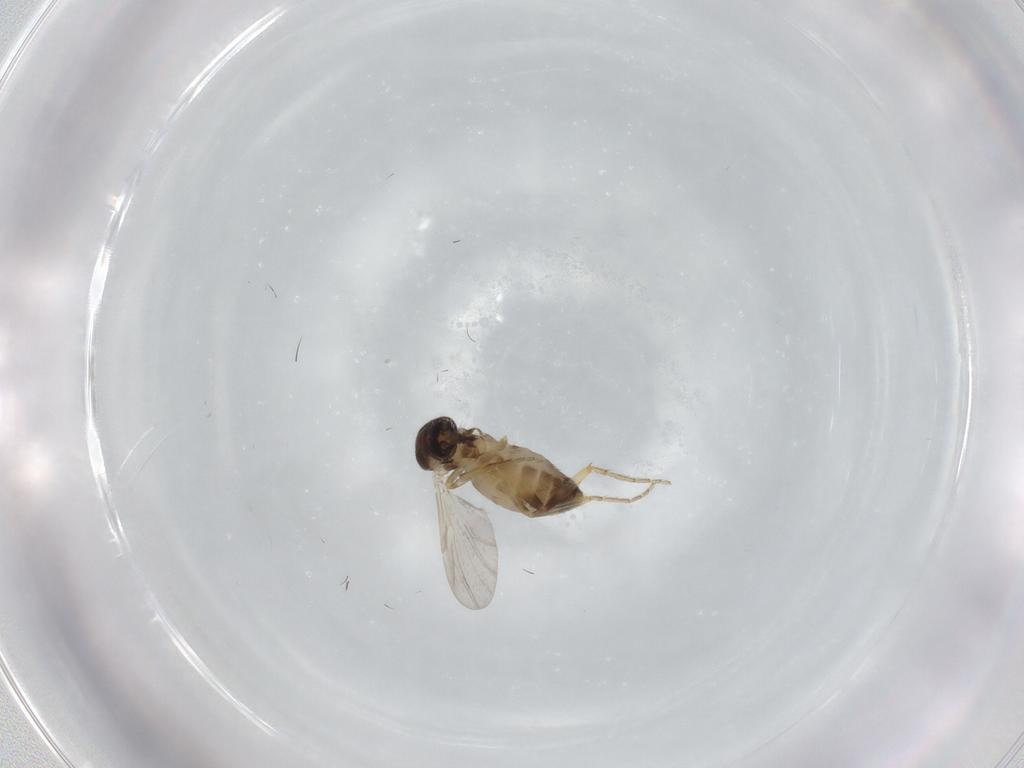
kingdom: Animalia
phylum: Arthropoda
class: Insecta
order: Diptera
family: Ceratopogonidae
